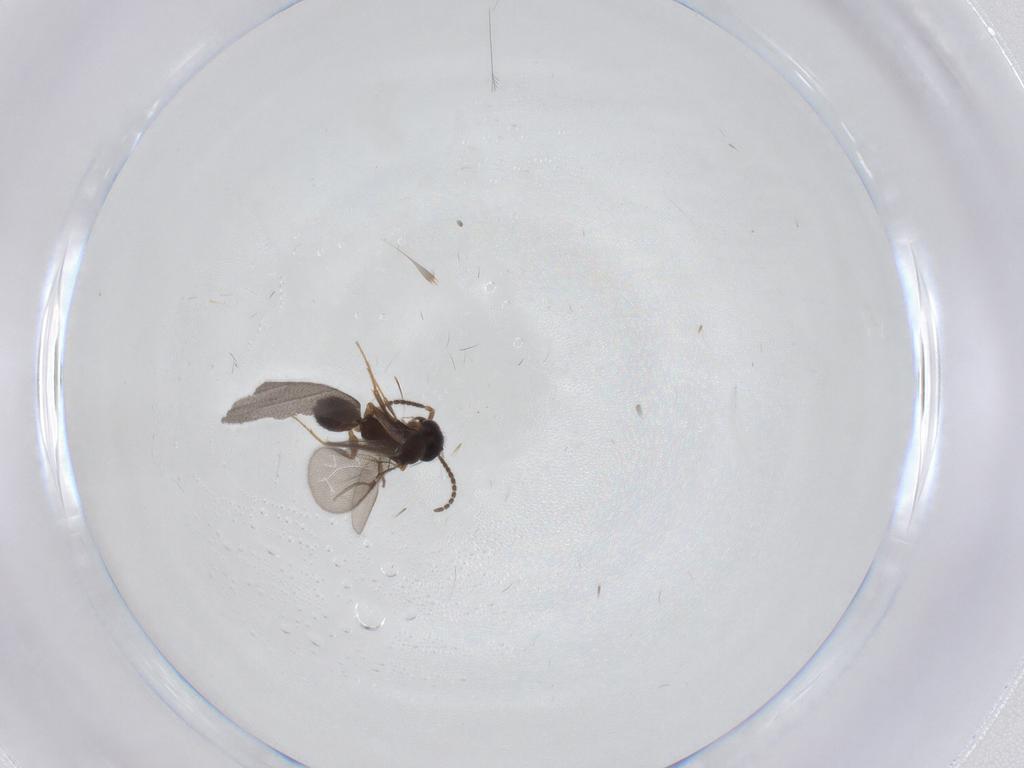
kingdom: Animalia
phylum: Arthropoda
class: Insecta
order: Hymenoptera
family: Bethylidae
